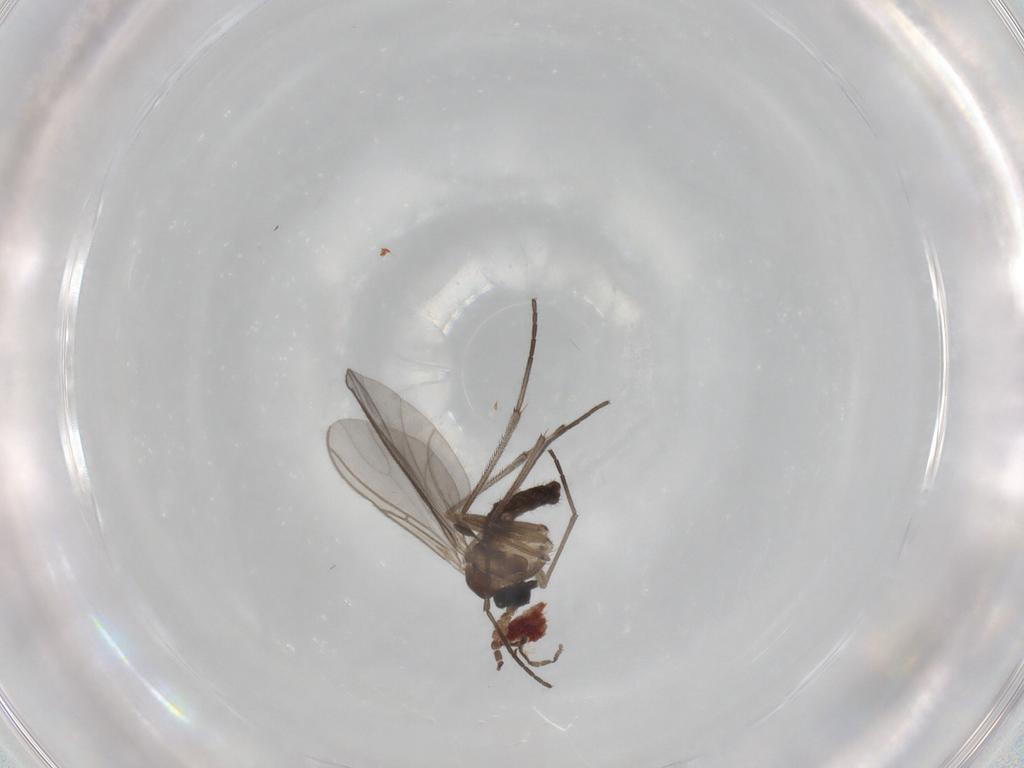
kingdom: Animalia
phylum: Arthropoda
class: Insecta
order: Diptera
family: Sciaridae
